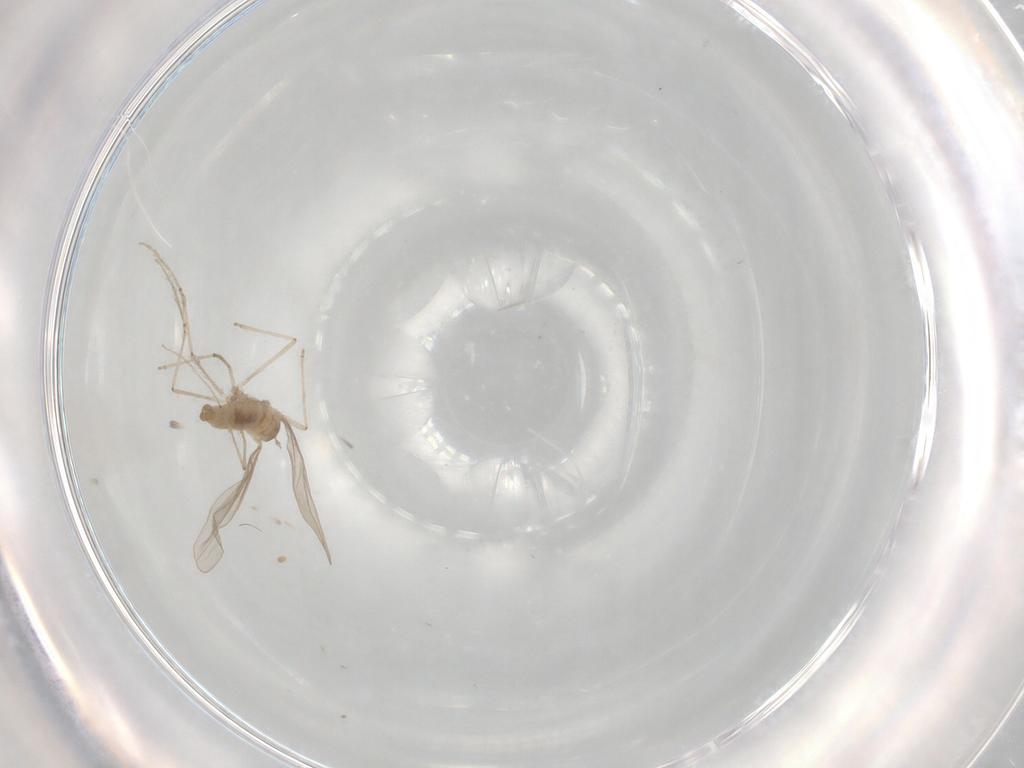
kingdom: Animalia
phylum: Arthropoda
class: Insecta
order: Diptera
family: Cecidomyiidae
